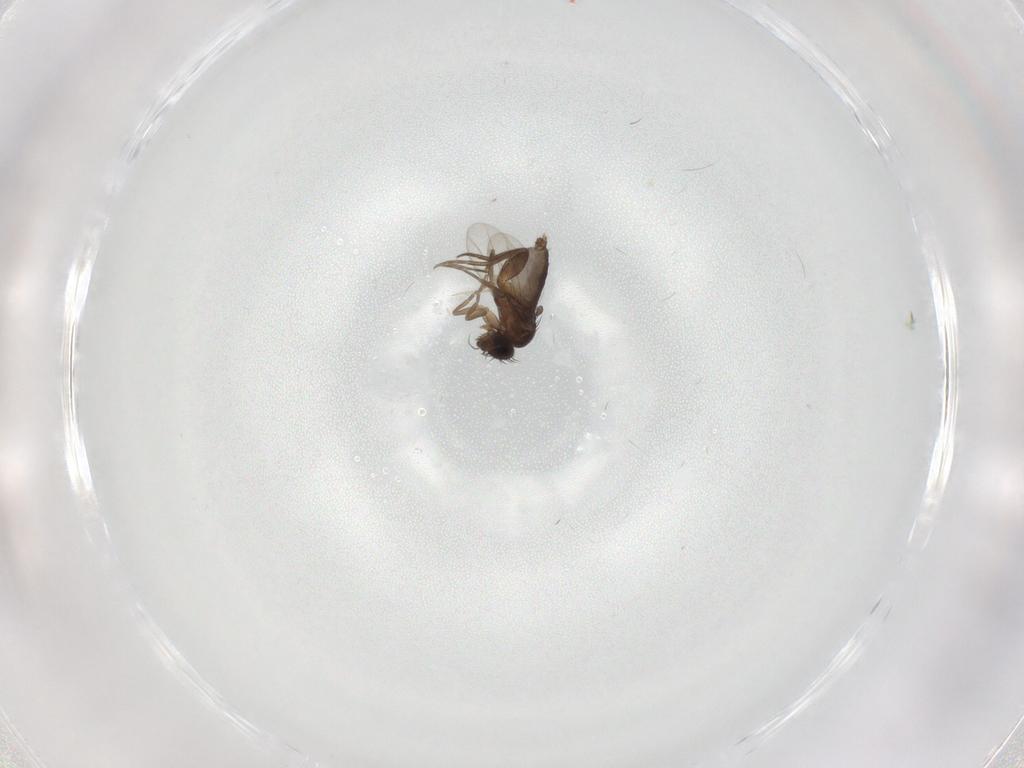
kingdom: Animalia
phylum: Arthropoda
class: Insecta
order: Diptera
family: Phoridae
